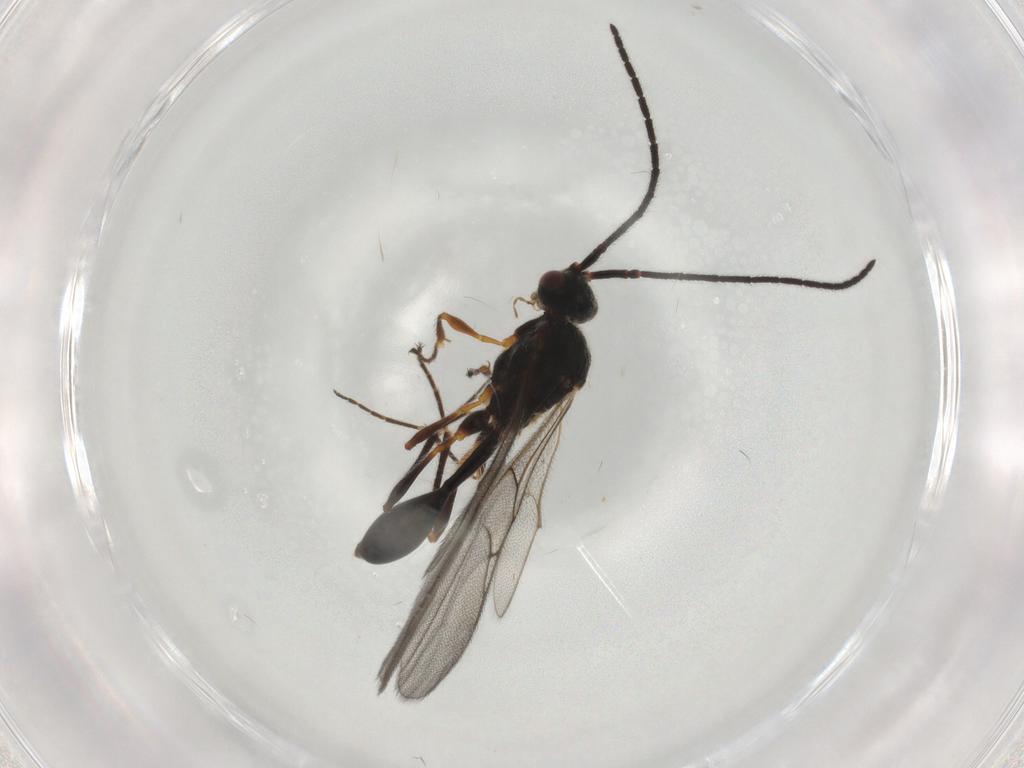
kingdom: Animalia
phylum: Arthropoda
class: Insecta
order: Hymenoptera
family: Diapriidae
